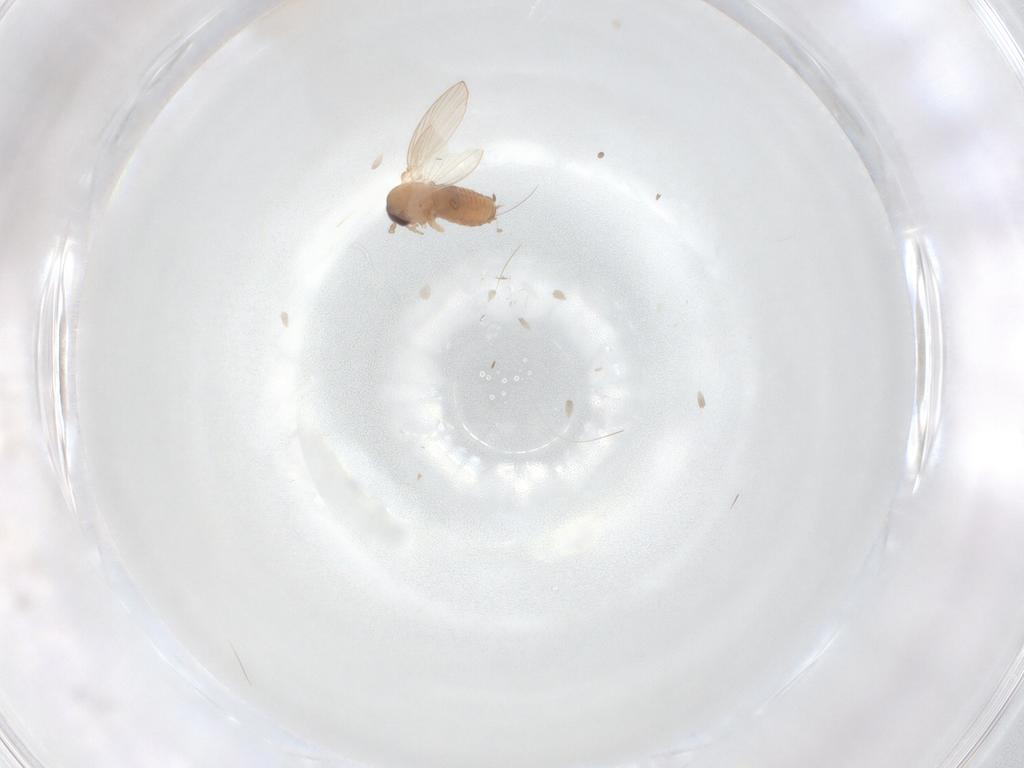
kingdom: Animalia
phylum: Arthropoda
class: Insecta
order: Diptera
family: Psychodidae
